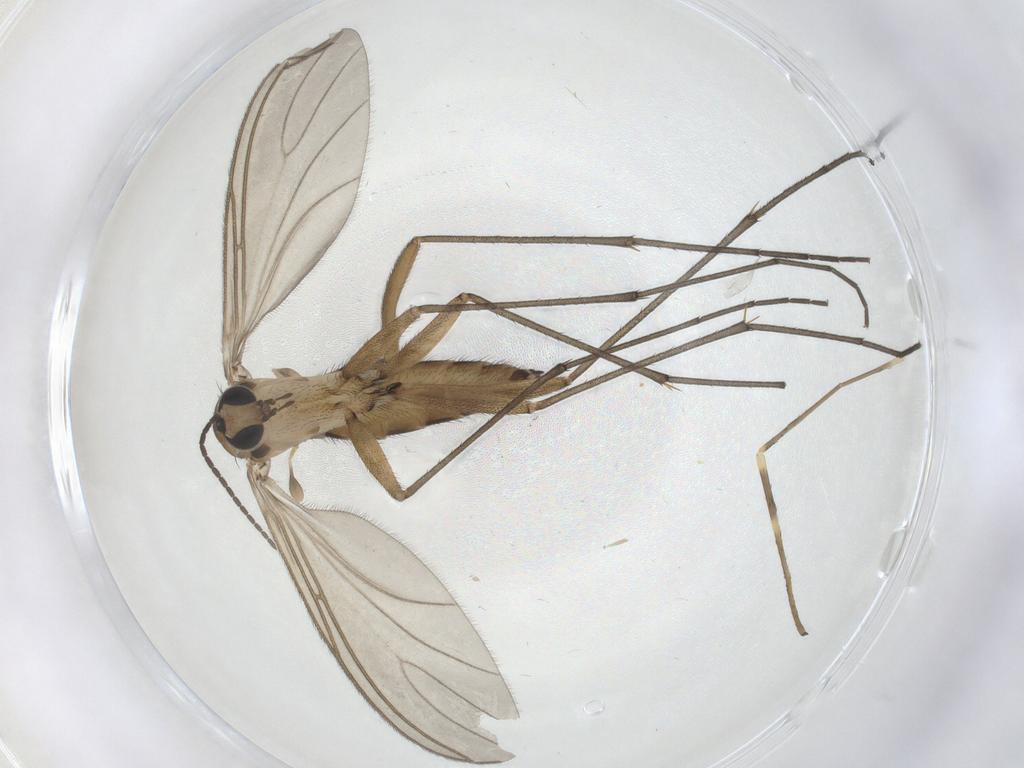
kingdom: Animalia
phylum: Arthropoda
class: Insecta
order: Diptera
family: Sciaridae
